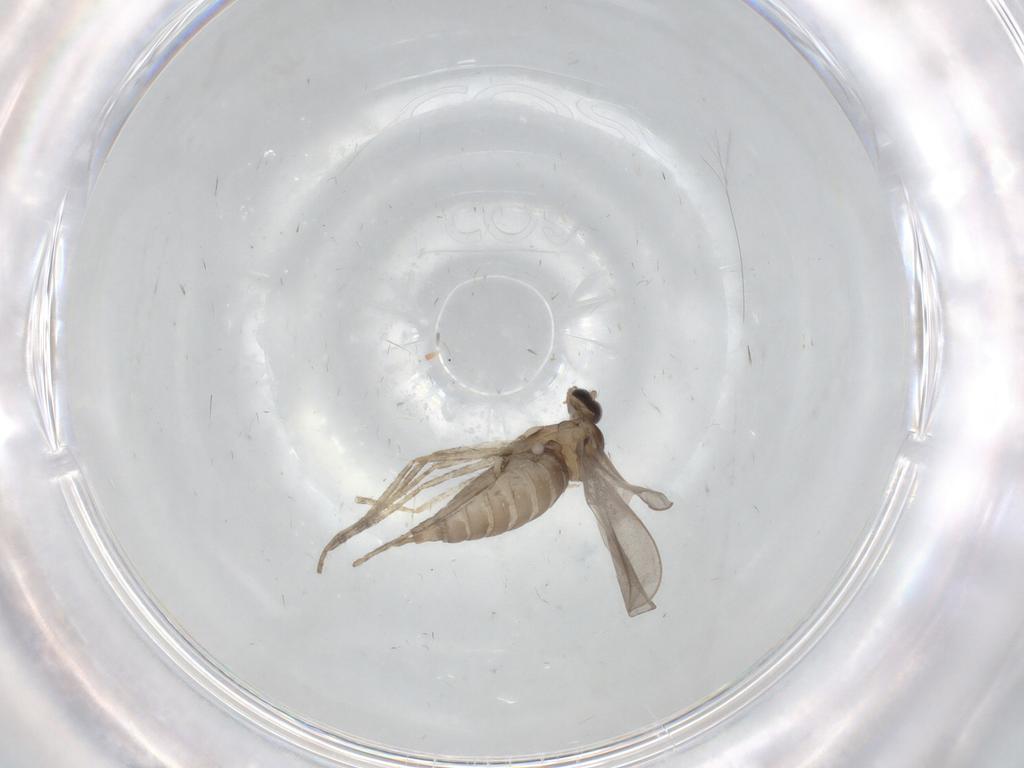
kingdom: Animalia
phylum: Arthropoda
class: Insecta
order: Diptera
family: Cecidomyiidae
